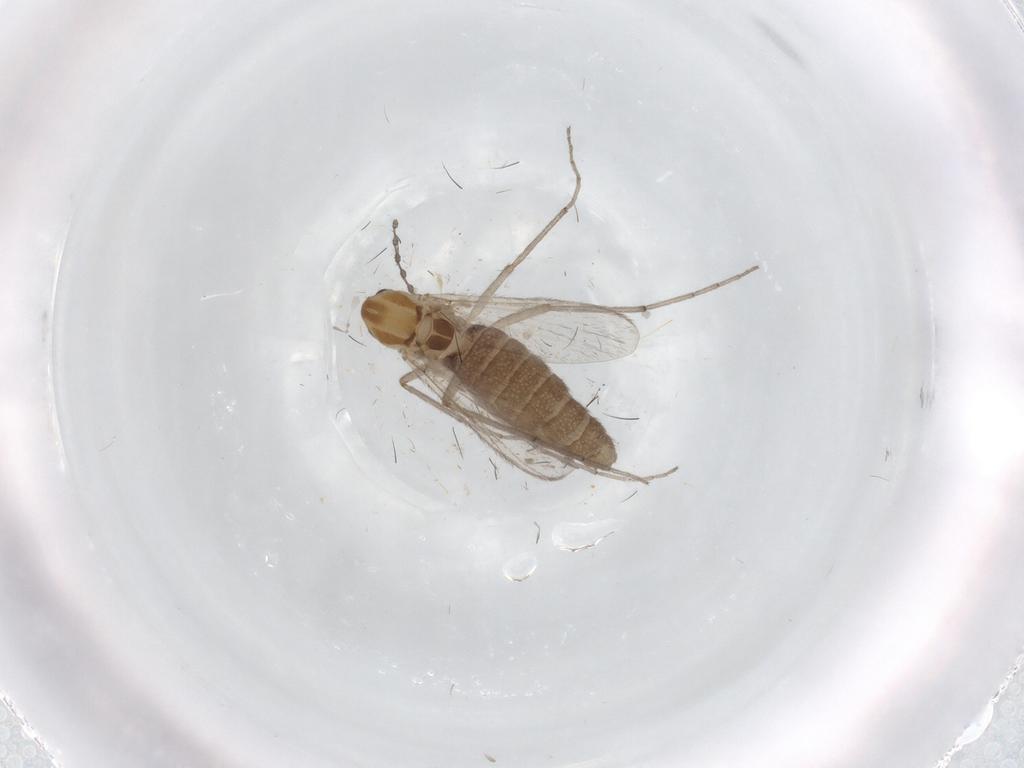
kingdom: Animalia
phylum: Arthropoda
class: Insecta
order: Diptera
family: Chironomidae
